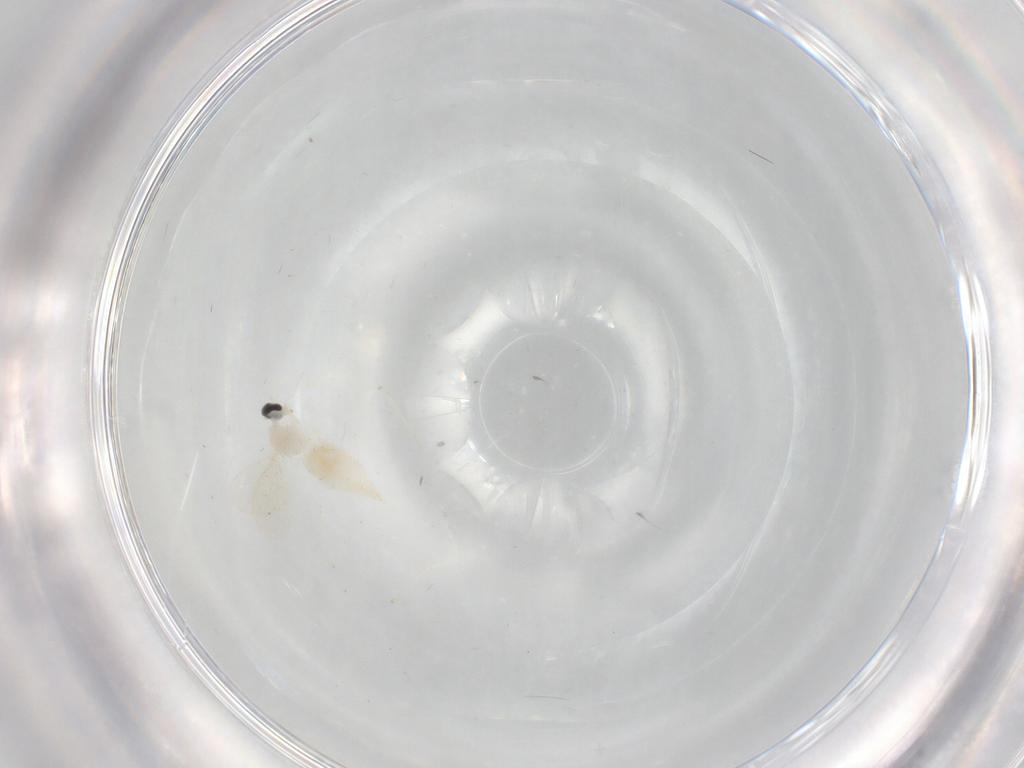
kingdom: Animalia
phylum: Arthropoda
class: Insecta
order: Diptera
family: Cecidomyiidae
